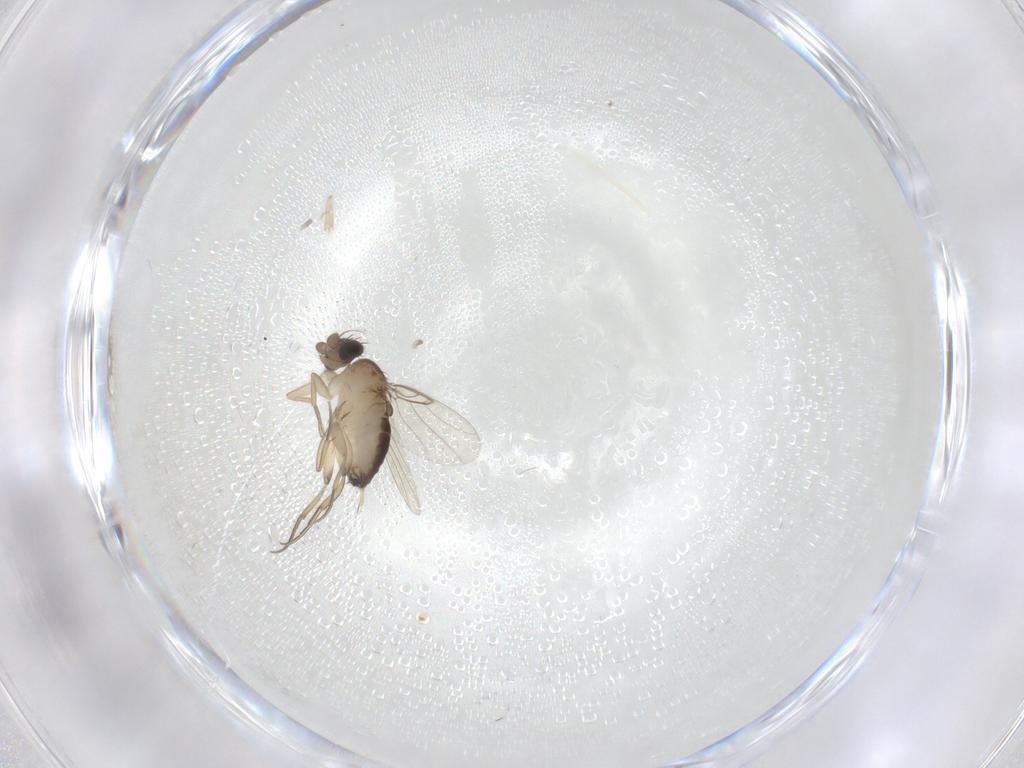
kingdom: Animalia
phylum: Arthropoda
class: Insecta
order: Diptera
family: Phoridae
